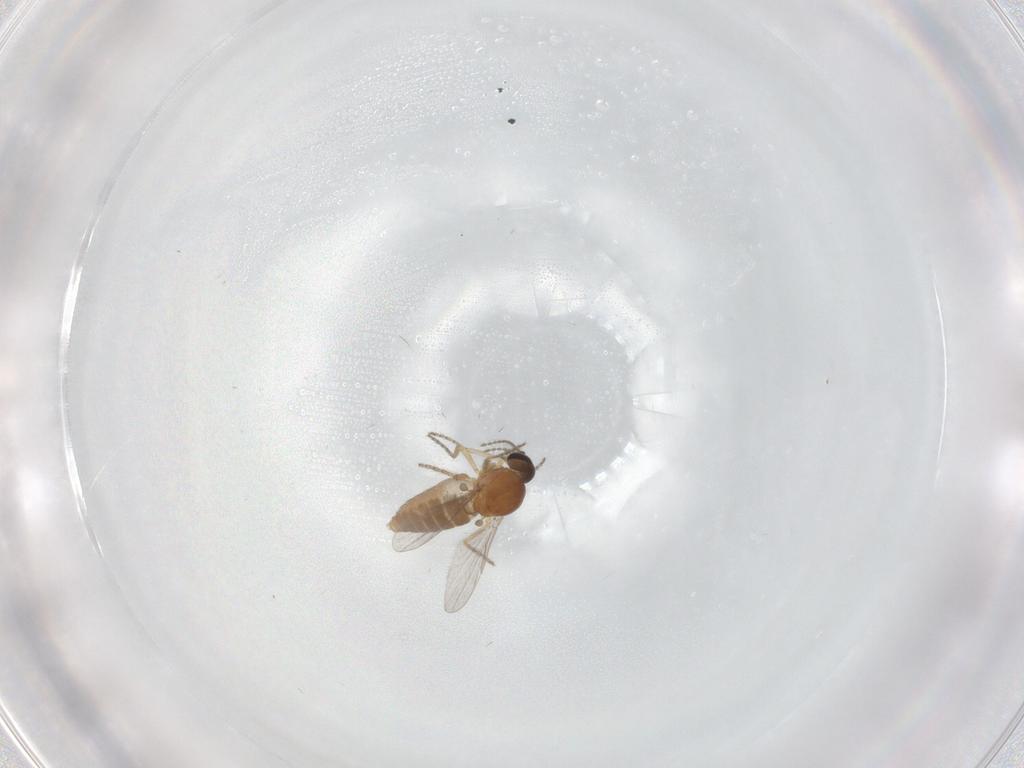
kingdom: Animalia
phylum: Arthropoda
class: Insecta
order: Diptera
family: Ceratopogonidae
